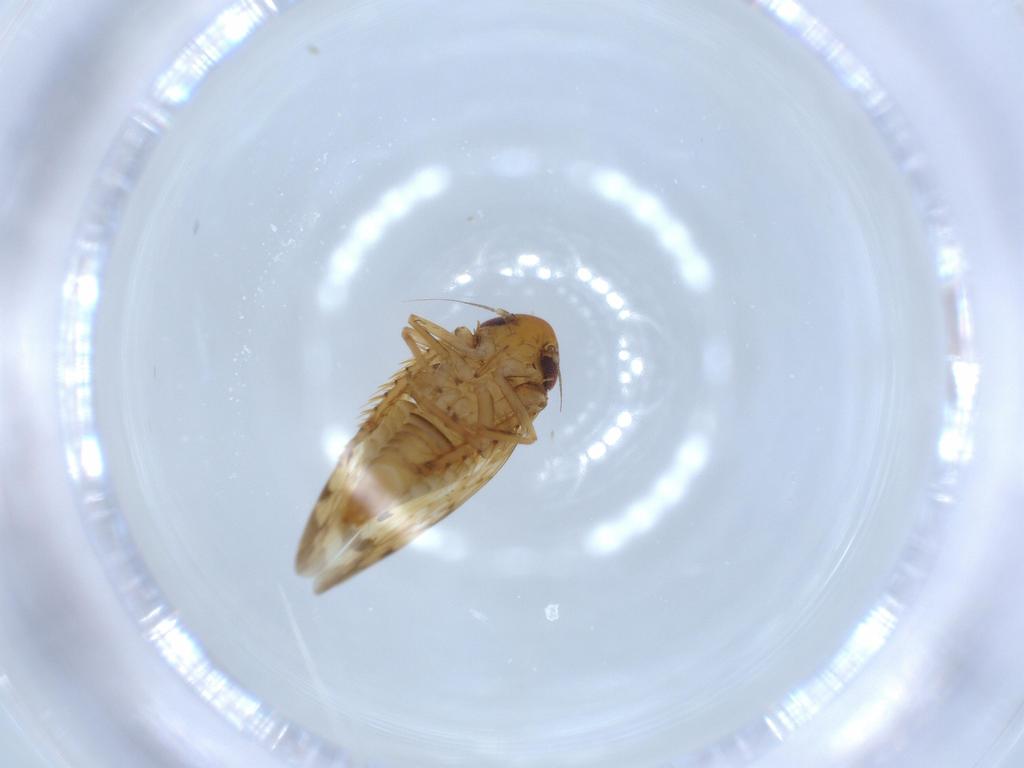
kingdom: Animalia
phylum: Arthropoda
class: Insecta
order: Hemiptera
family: Cicadellidae
